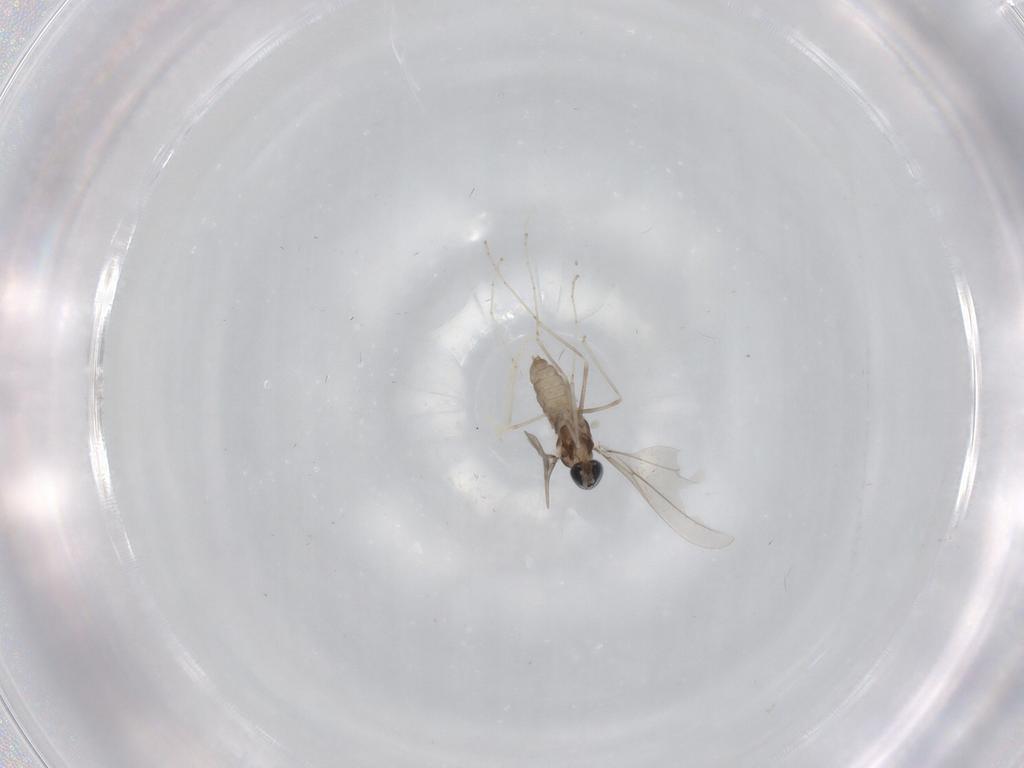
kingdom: Animalia
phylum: Arthropoda
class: Insecta
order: Diptera
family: Cecidomyiidae
